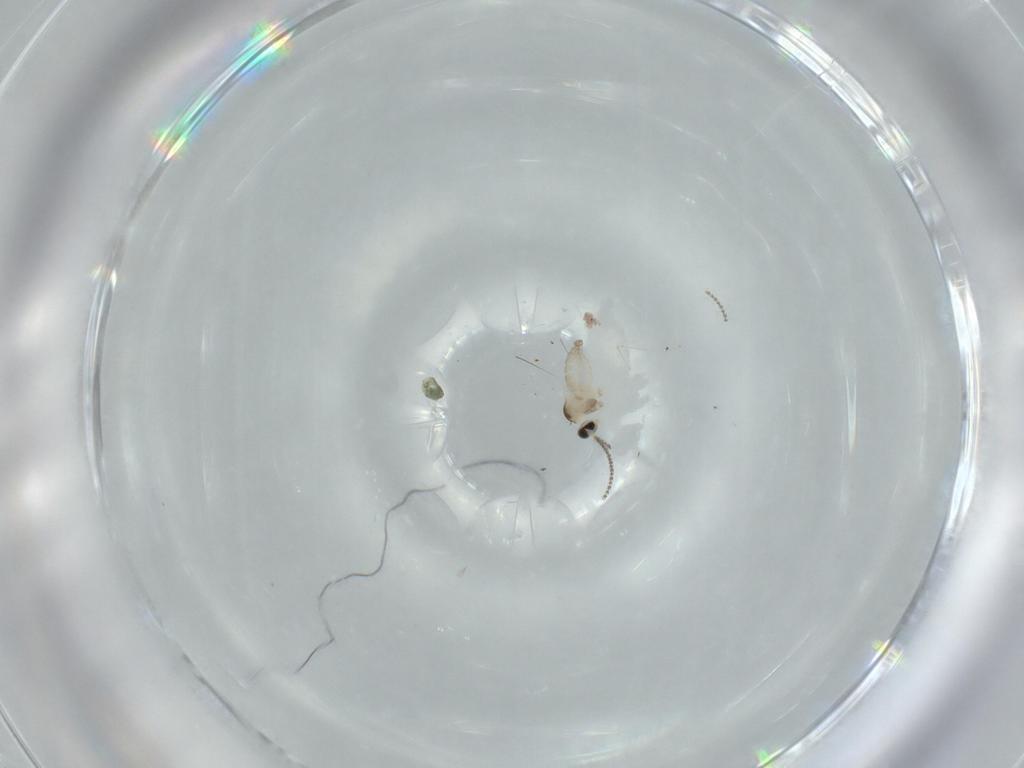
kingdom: Animalia
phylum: Arthropoda
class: Insecta
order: Diptera
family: Cecidomyiidae
